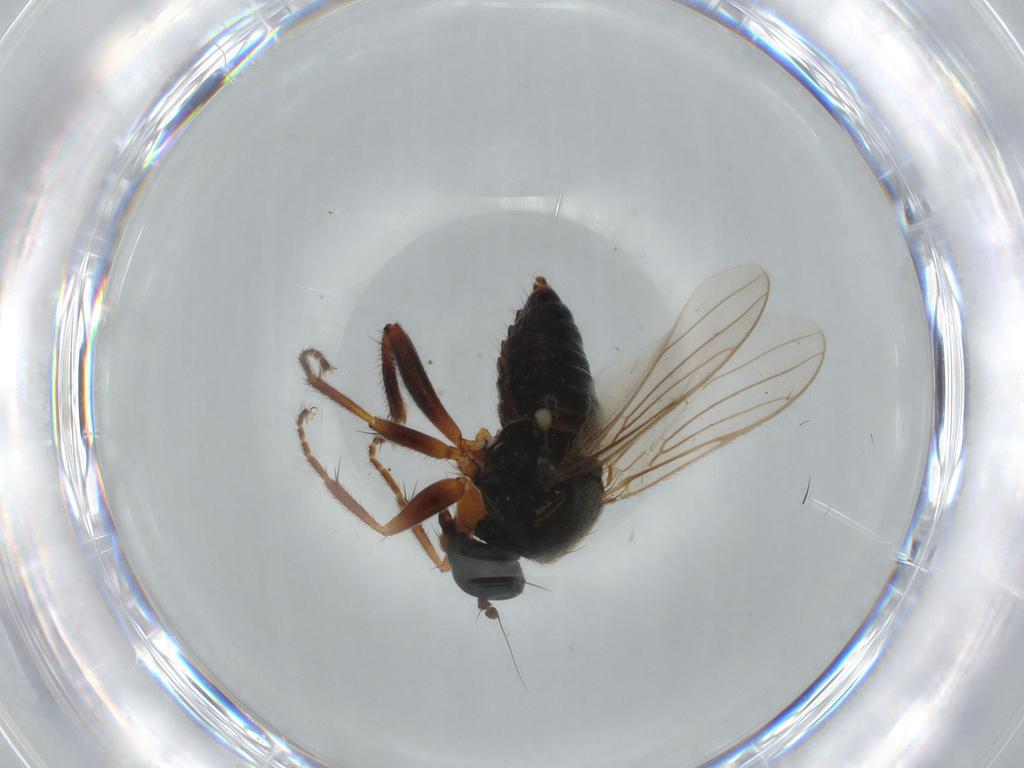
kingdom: Animalia
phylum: Arthropoda
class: Insecta
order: Diptera
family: Hybotidae
